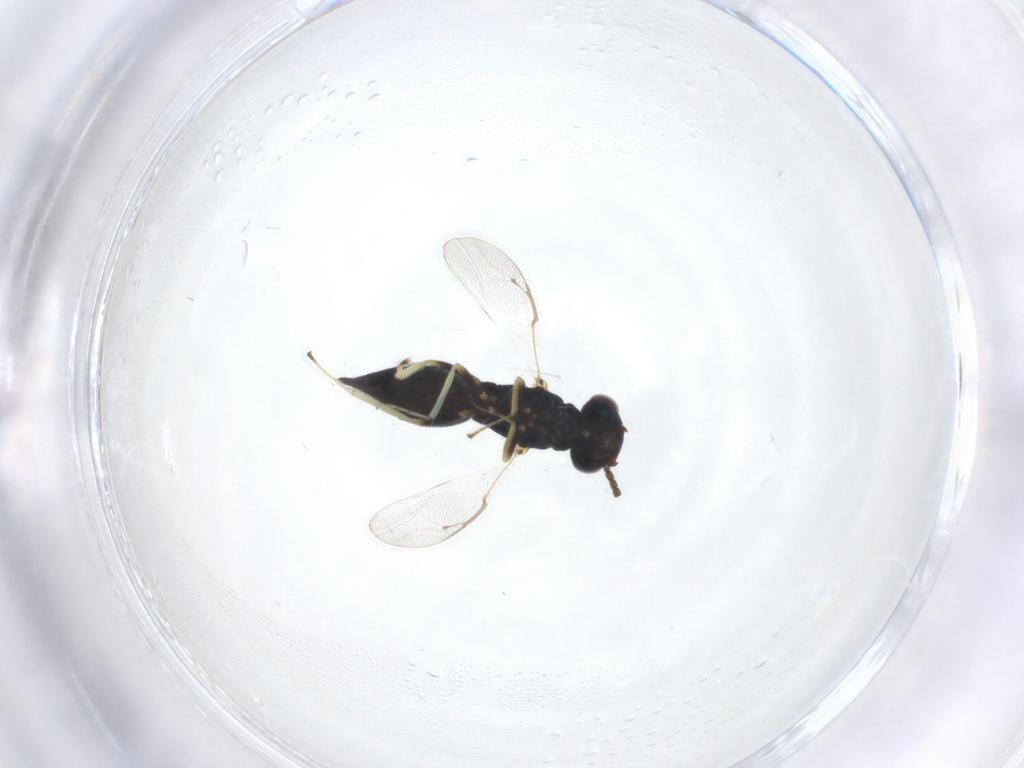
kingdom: Animalia
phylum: Arthropoda
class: Insecta
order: Hymenoptera
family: Pteromalidae
